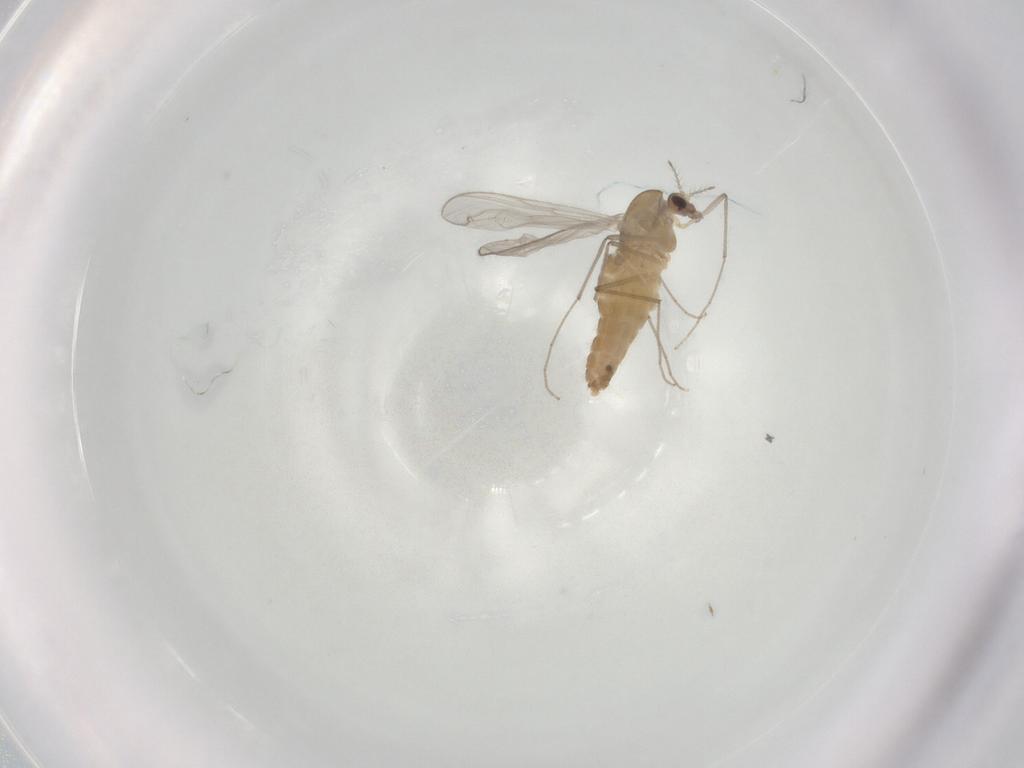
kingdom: Animalia
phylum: Arthropoda
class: Insecta
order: Diptera
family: Chironomidae
